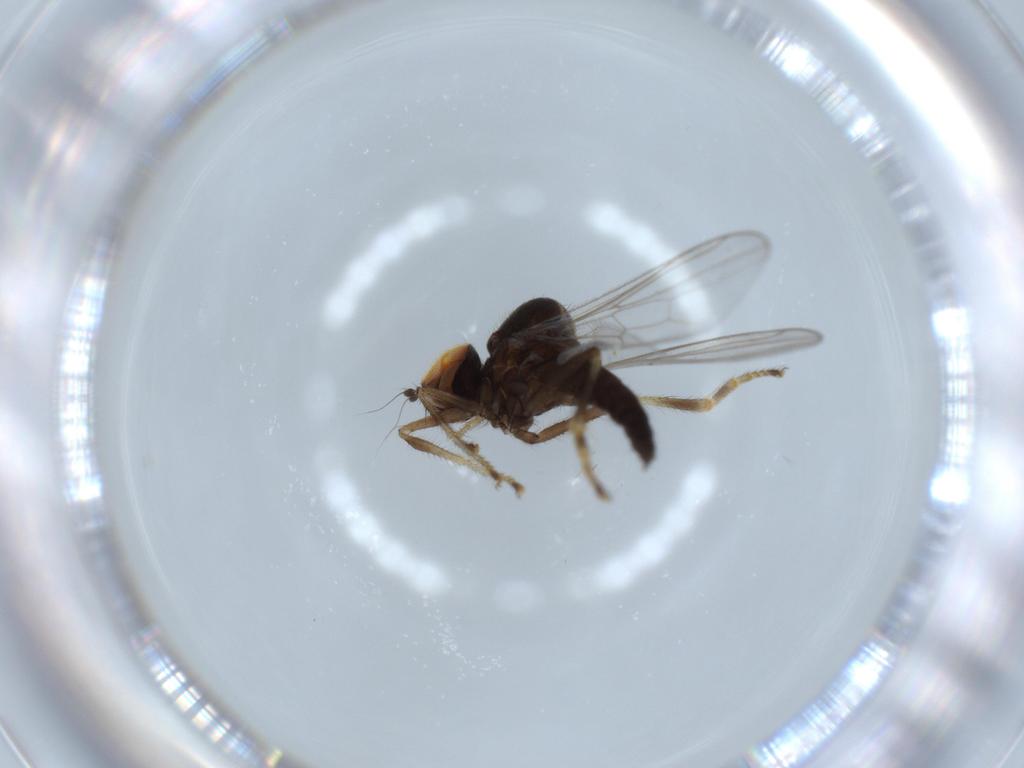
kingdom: Animalia
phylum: Arthropoda
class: Insecta
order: Diptera
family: Hybotidae
